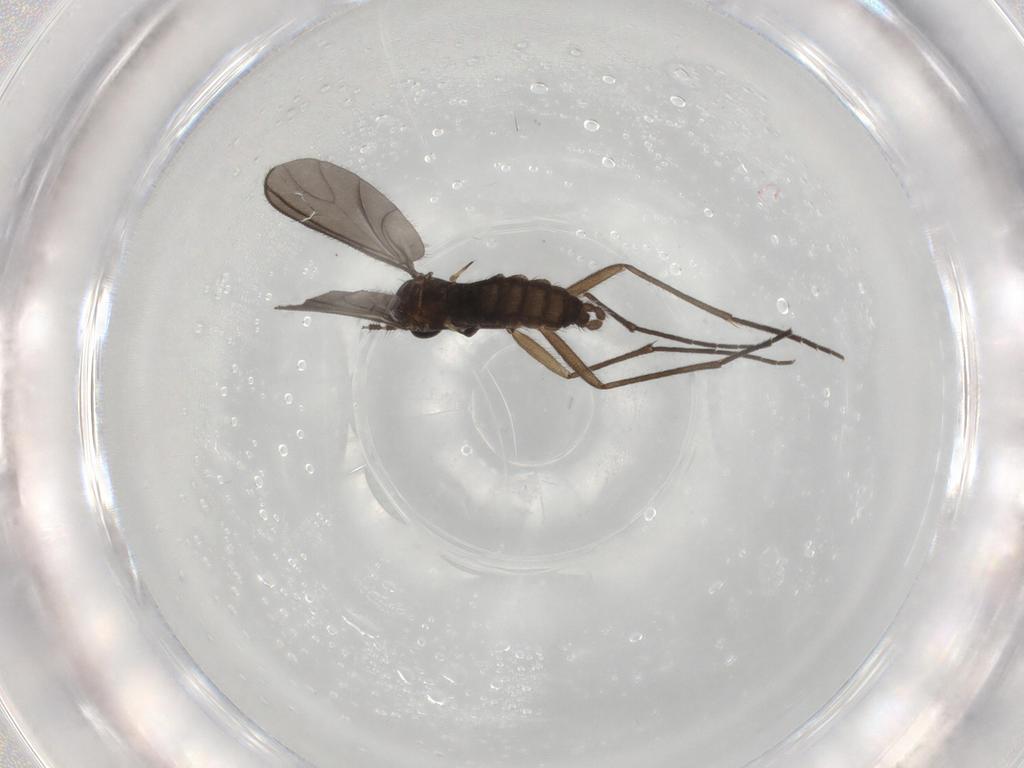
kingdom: Animalia
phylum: Arthropoda
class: Insecta
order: Diptera
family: Sciaridae
